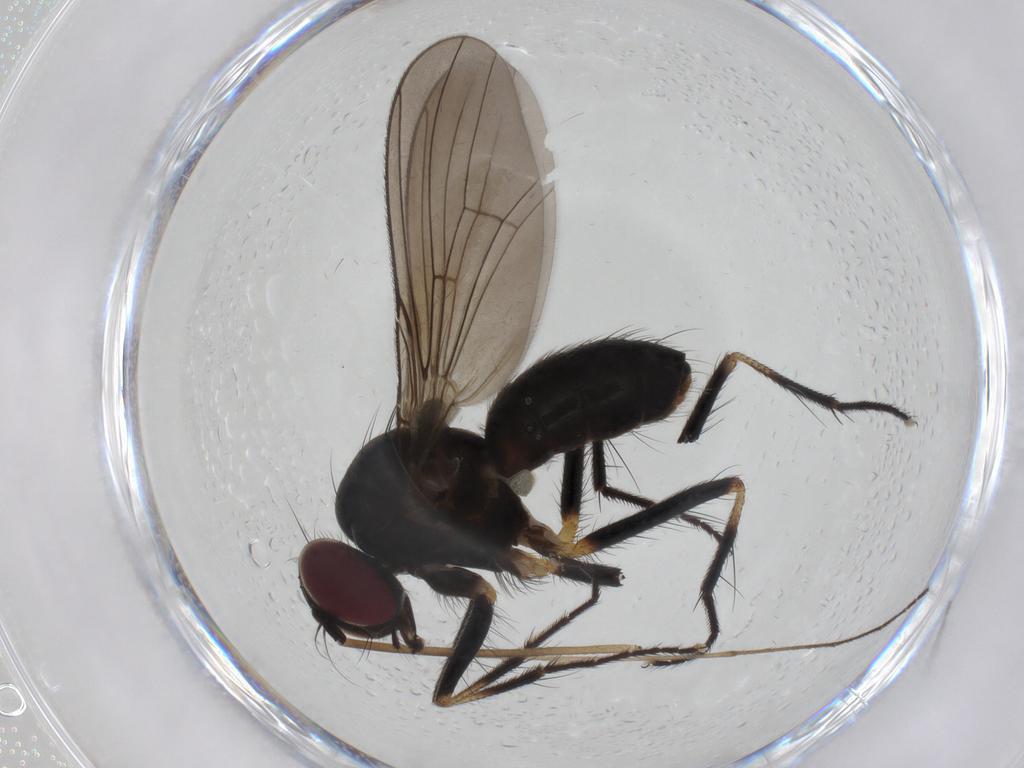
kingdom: Animalia
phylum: Arthropoda
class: Insecta
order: Diptera
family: Anthomyiidae
